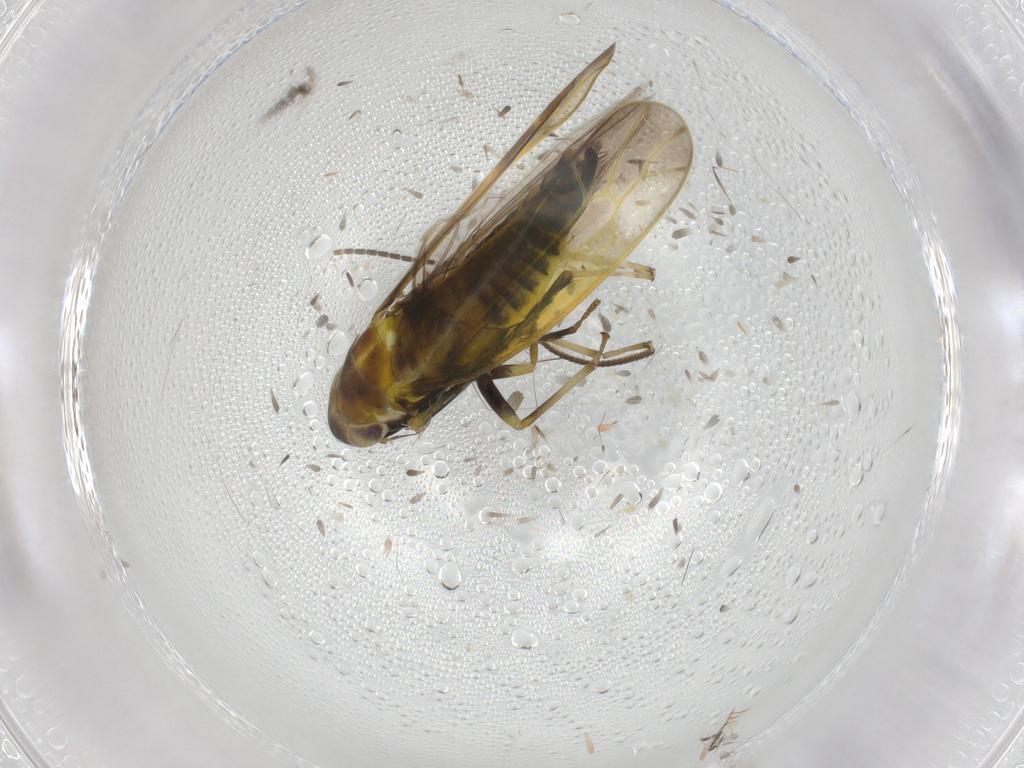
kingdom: Animalia
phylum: Arthropoda
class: Insecta
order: Hemiptera
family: Cicadellidae
